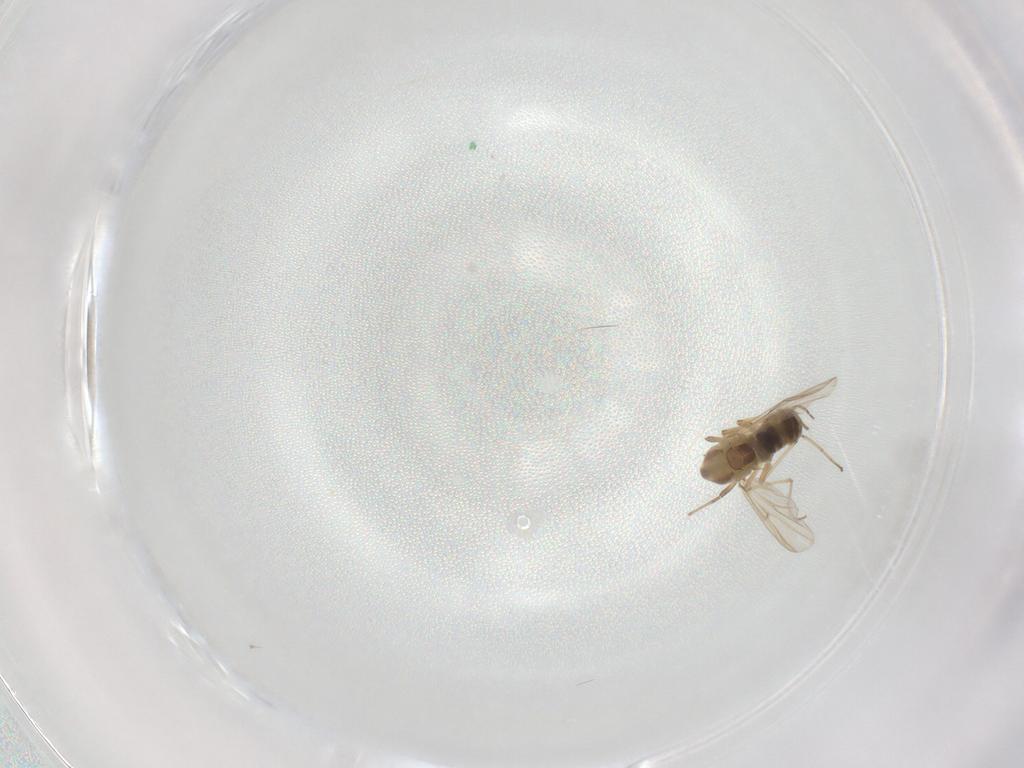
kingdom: Animalia
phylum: Arthropoda
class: Insecta
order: Diptera
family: Chironomidae
